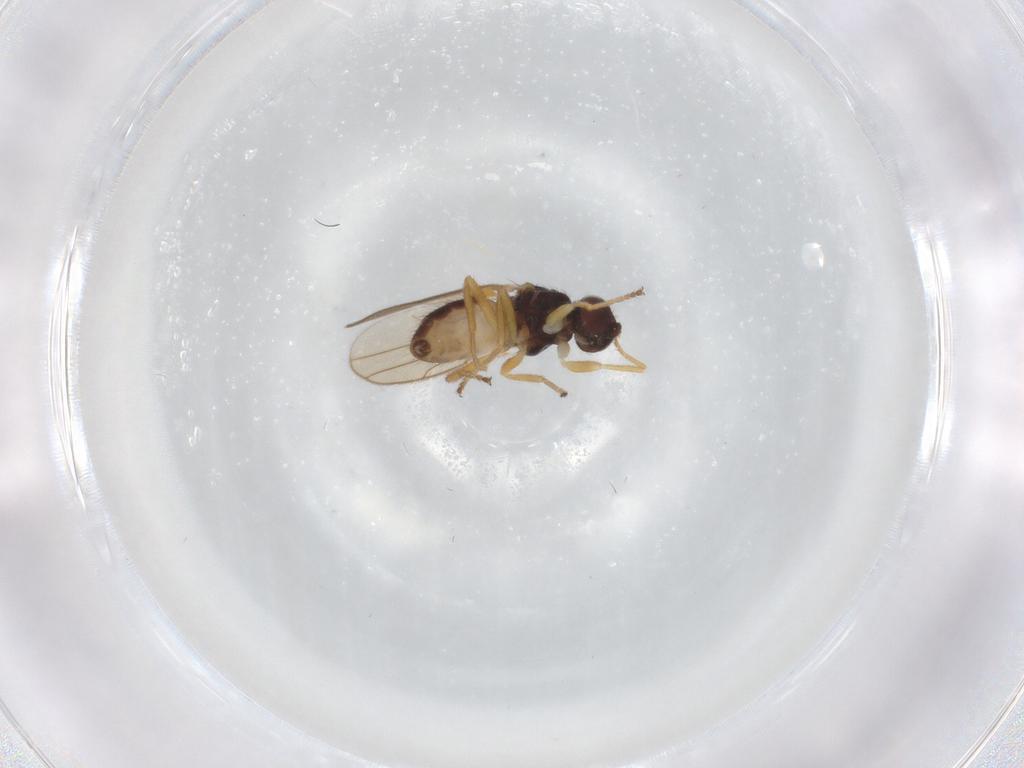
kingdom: Animalia
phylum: Arthropoda
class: Insecta
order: Diptera
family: Chloropidae
